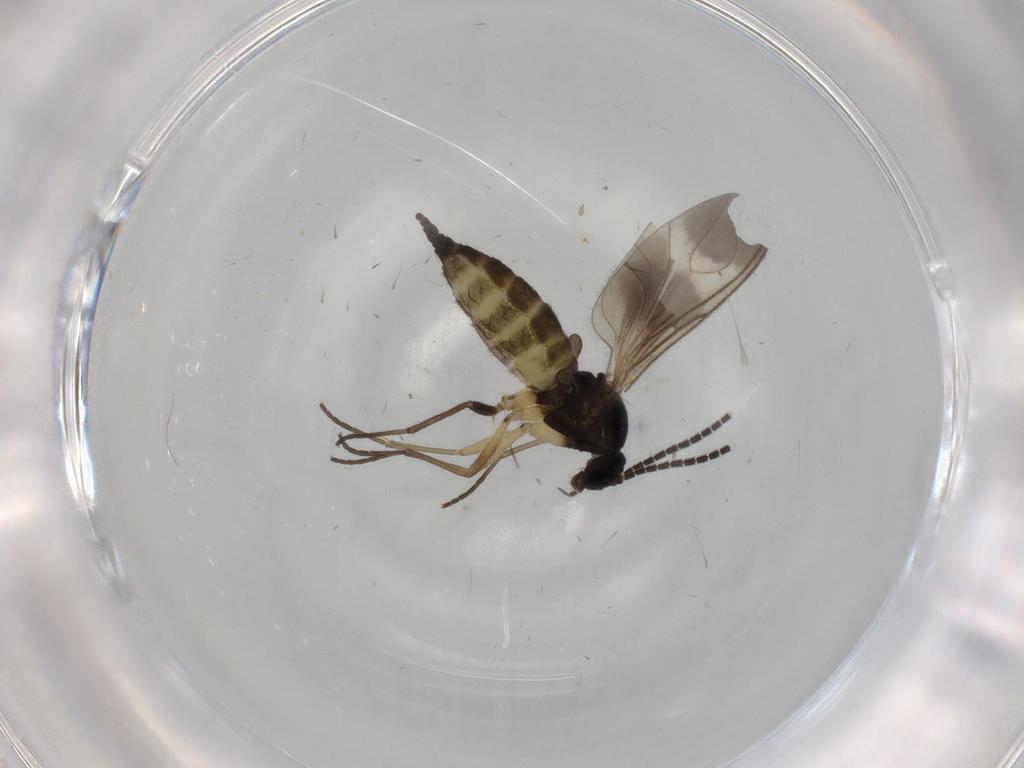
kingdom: Animalia
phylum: Arthropoda
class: Insecta
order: Diptera
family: Sciaridae
